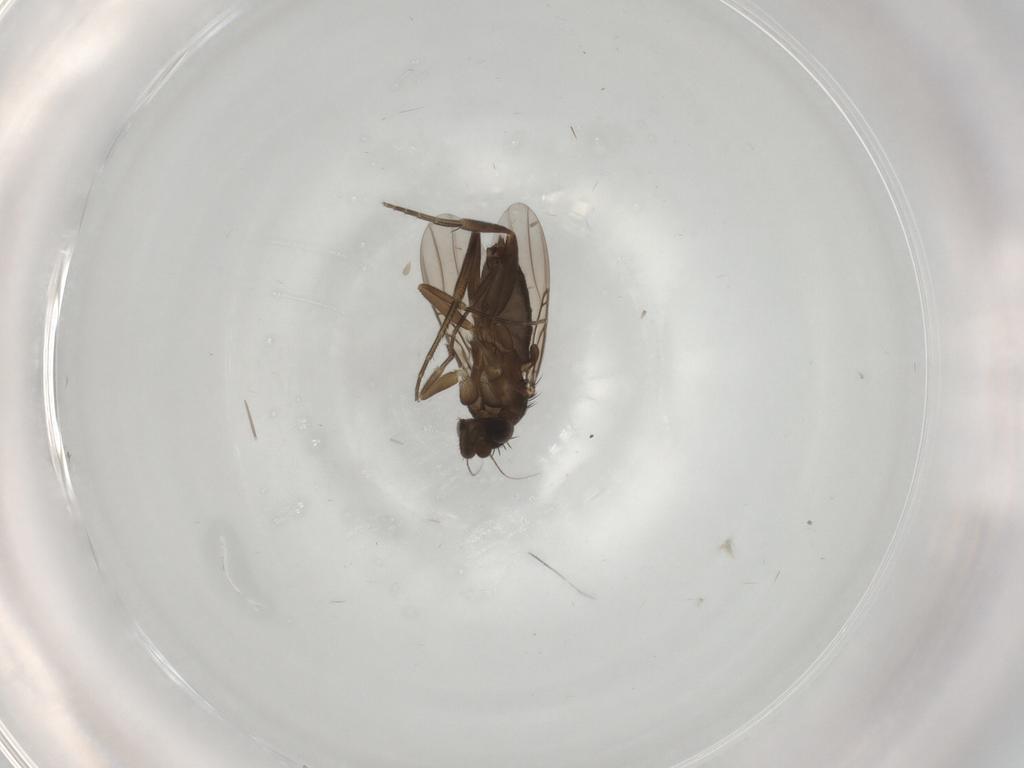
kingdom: Animalia
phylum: Arthropoda
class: Insecta
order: Diptera
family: Phoridae
